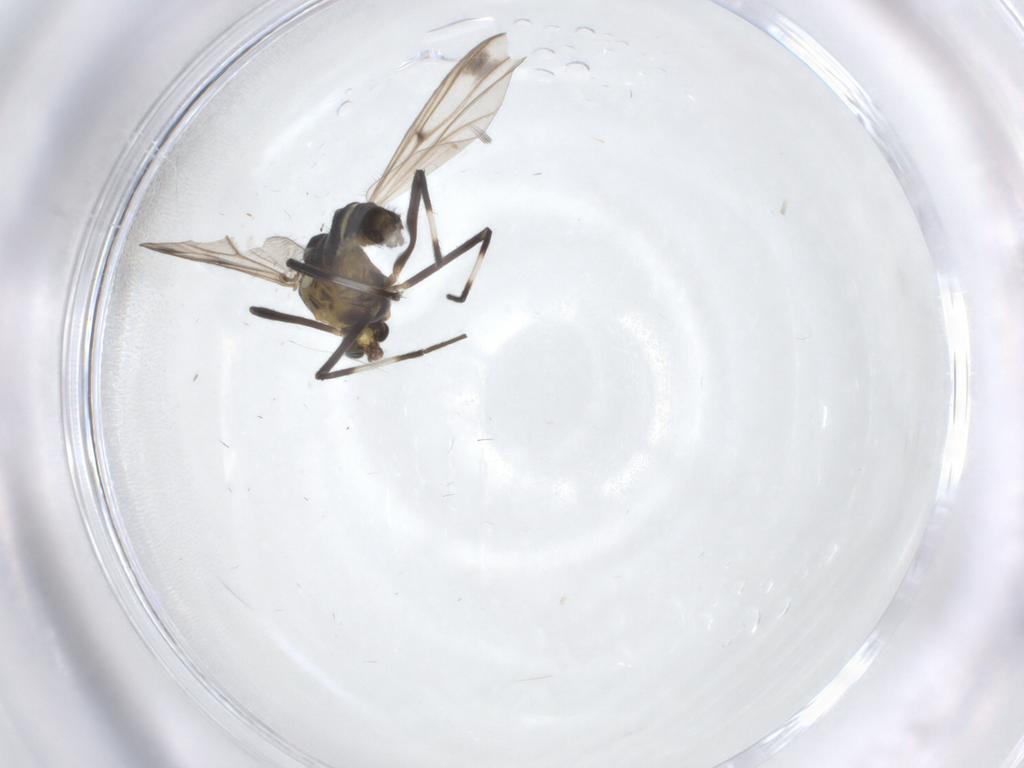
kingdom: Animalia
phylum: Arthropoda
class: Insecta
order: Diptera
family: Chironomidae
